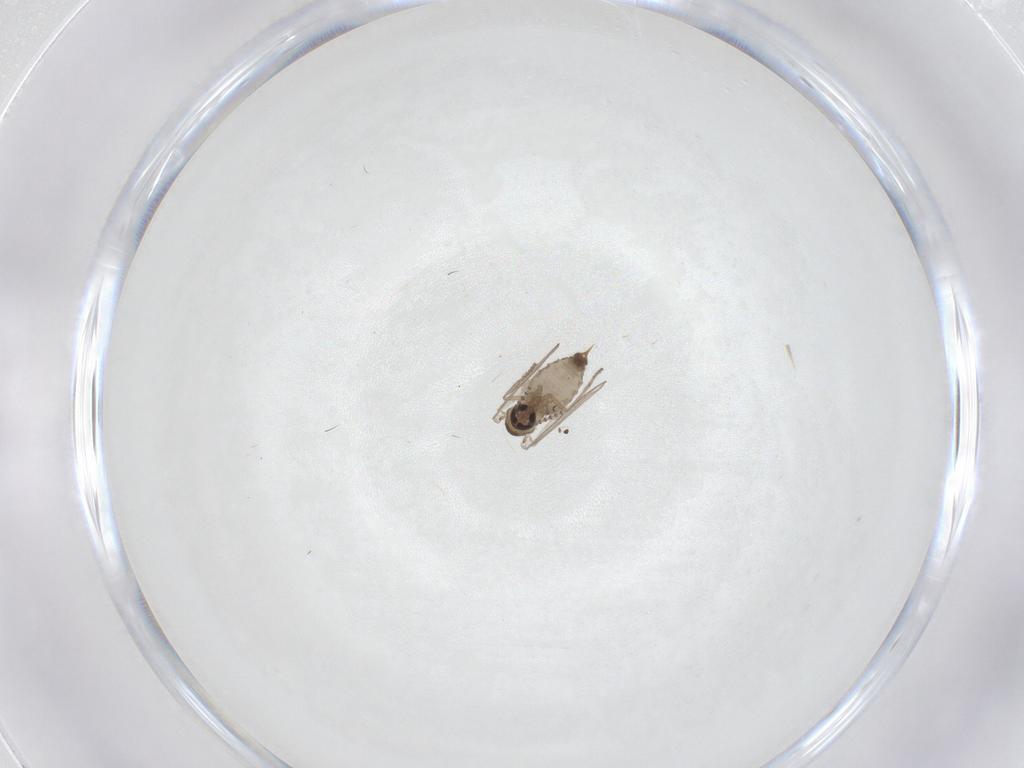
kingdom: Animalia
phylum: Arthropoda
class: Insecta
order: Diptera
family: Psychodidae
